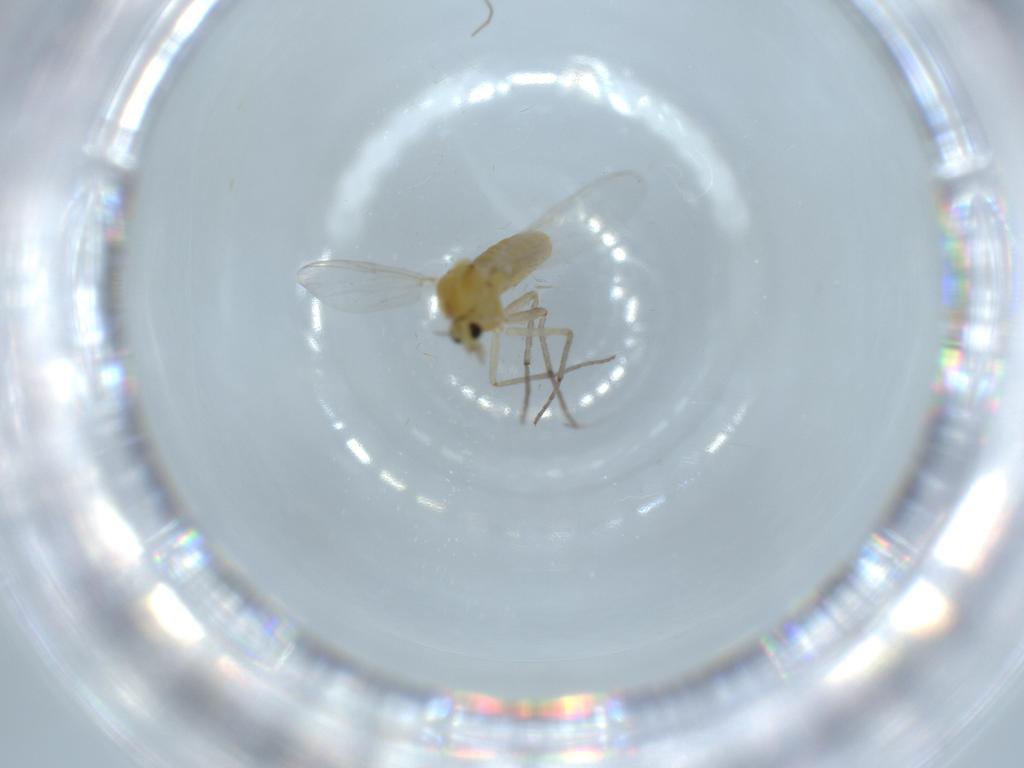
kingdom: Animalia
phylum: Arthropoda
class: Insecta
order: Diptera
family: Chironomidae
